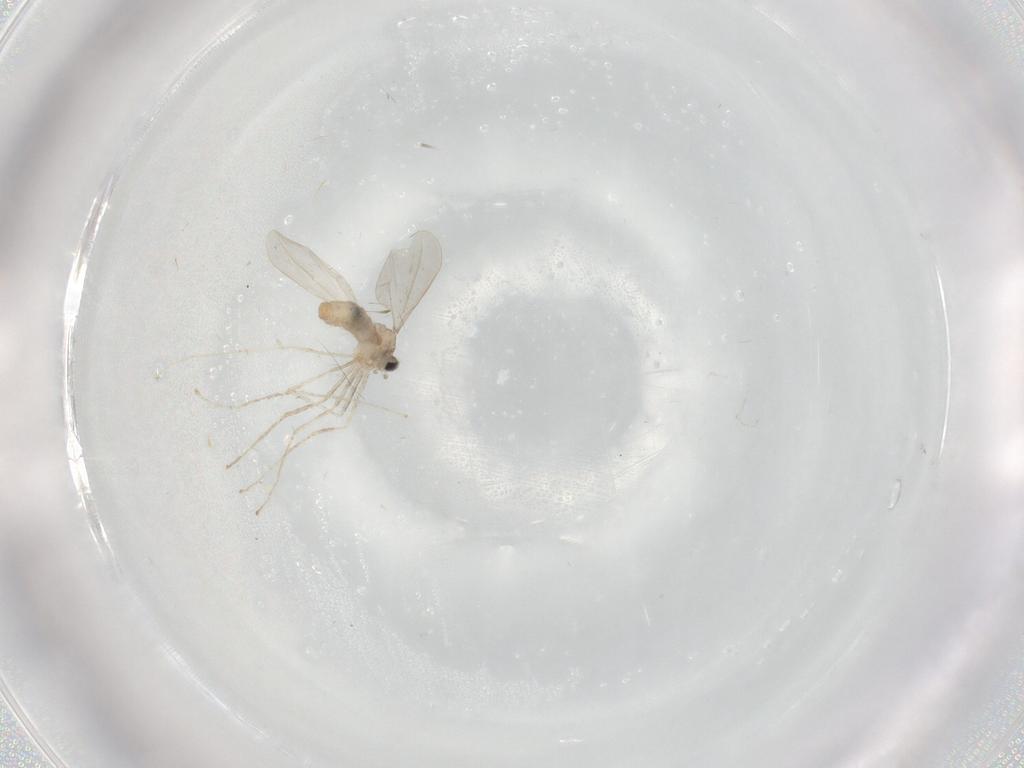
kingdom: Animalia
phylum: Arthropoda
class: Insecta
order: Diptera
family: Cecidomyiidae
